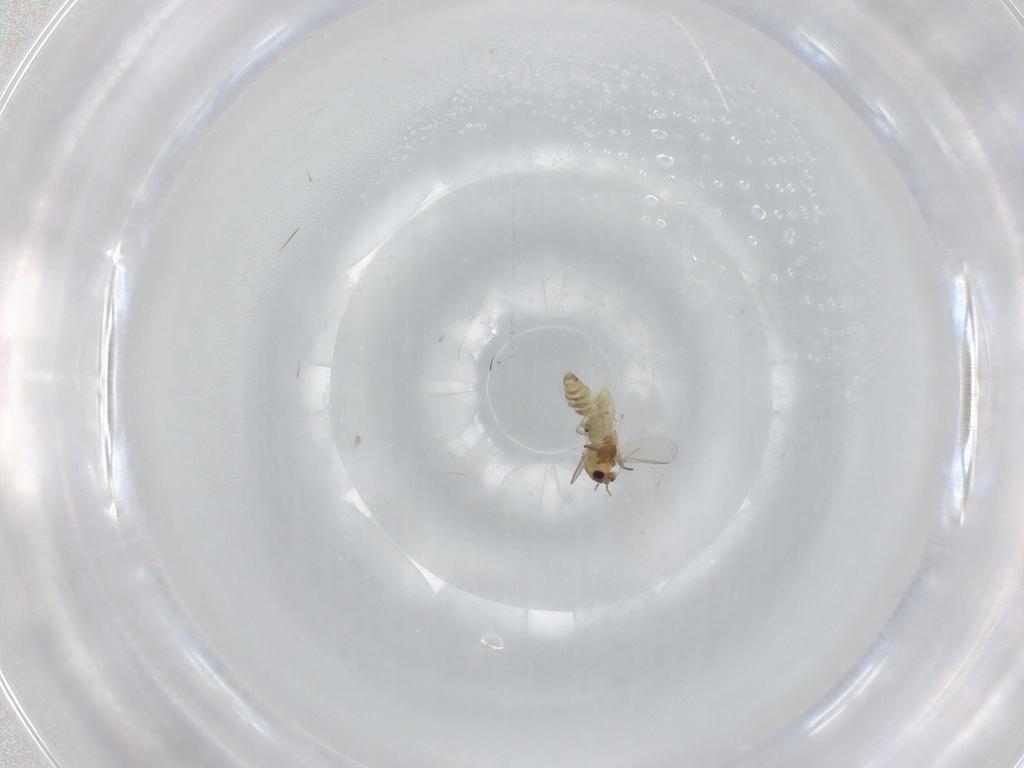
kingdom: Animalia
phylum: Arthropoda
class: Insecta
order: Diptera
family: Chironomidae
